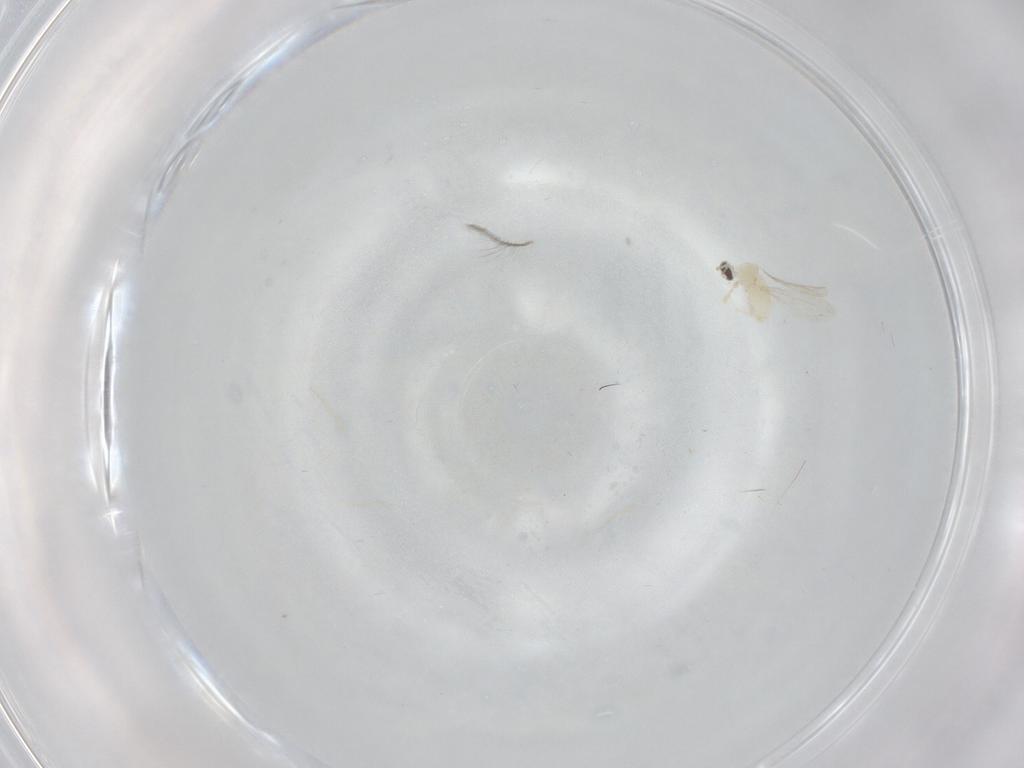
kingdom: Animalia
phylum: Arthropoda
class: Insecta
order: Diptera
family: Cecidomyiidae
